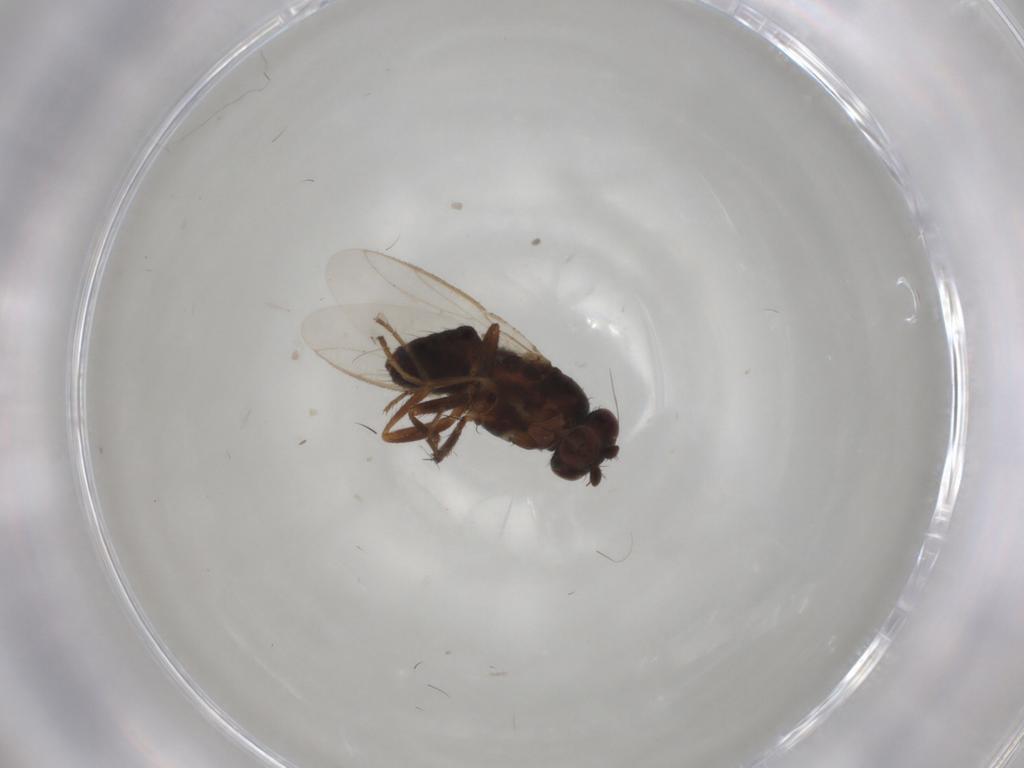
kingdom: Animalia
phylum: Arthropoda
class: Insecta
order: Diptera
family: Sphaeroceridae
